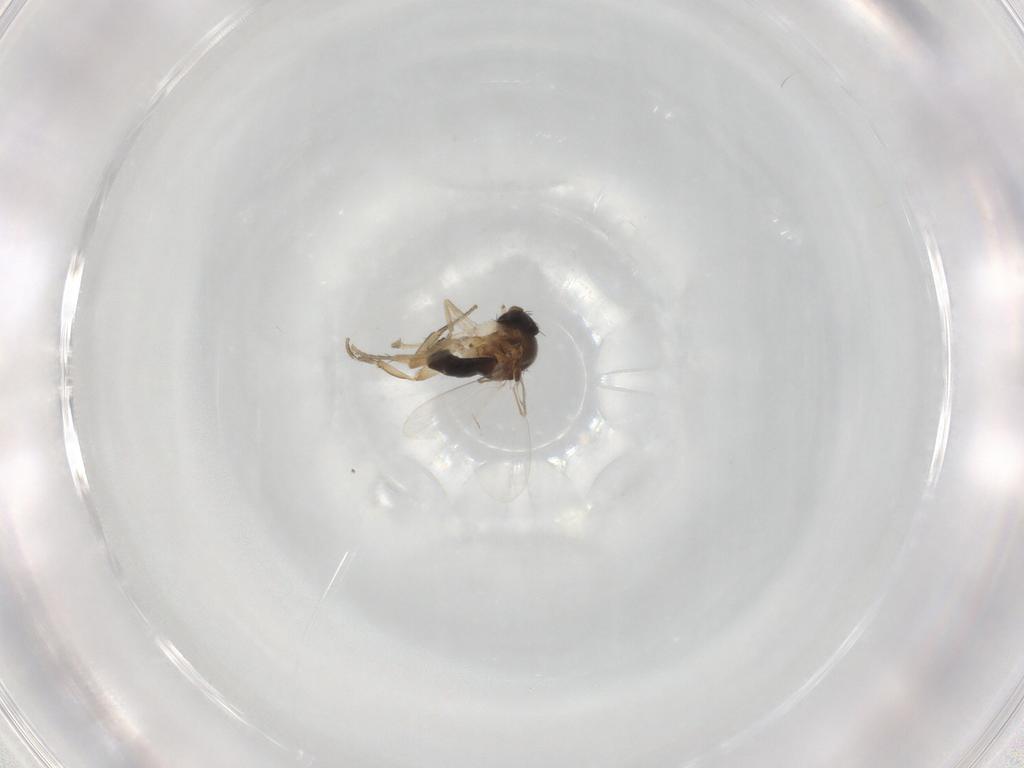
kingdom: Animalia
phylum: Arthropoda
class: Insecta
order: Diptera
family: Phoridae
